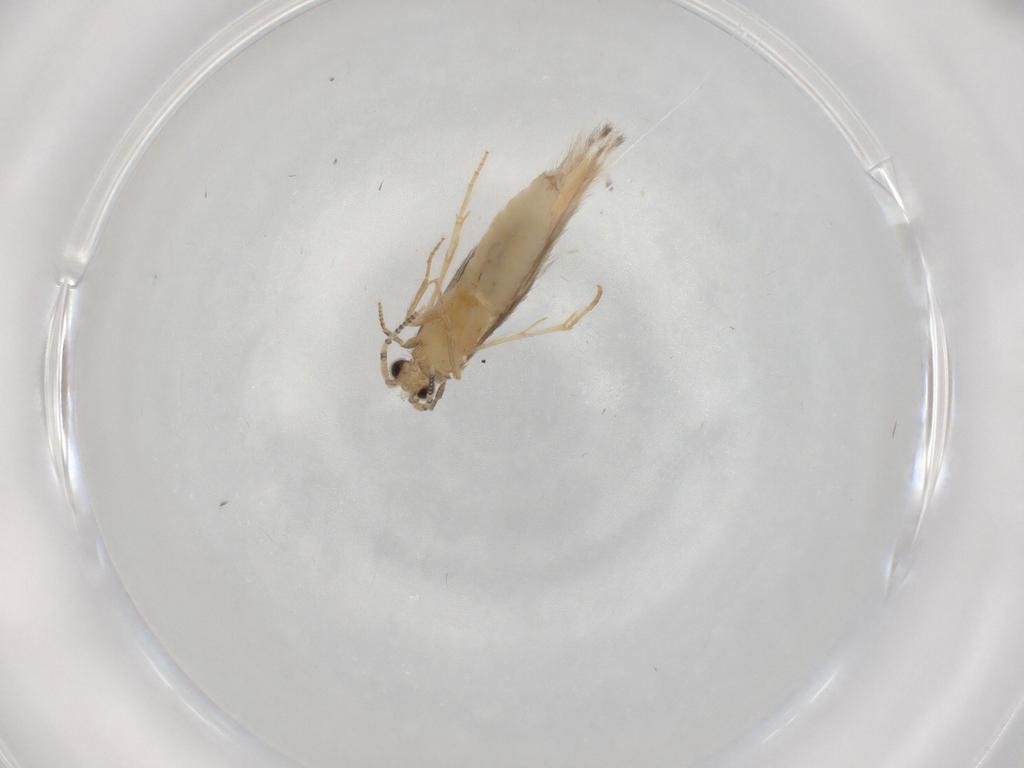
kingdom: Animalia
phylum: Arthropoda
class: Insecta
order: Trichoptera
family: Hydroptilidae
